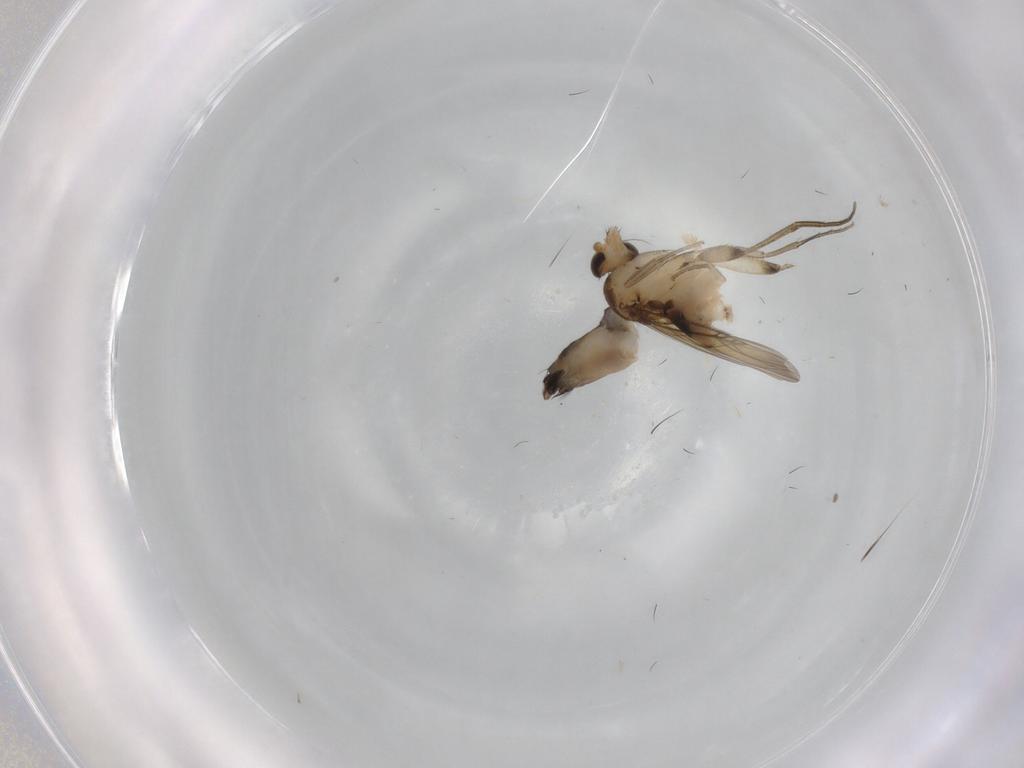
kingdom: Animalia
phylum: Arthropoda
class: Insecta
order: Diptera
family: Phoridae
